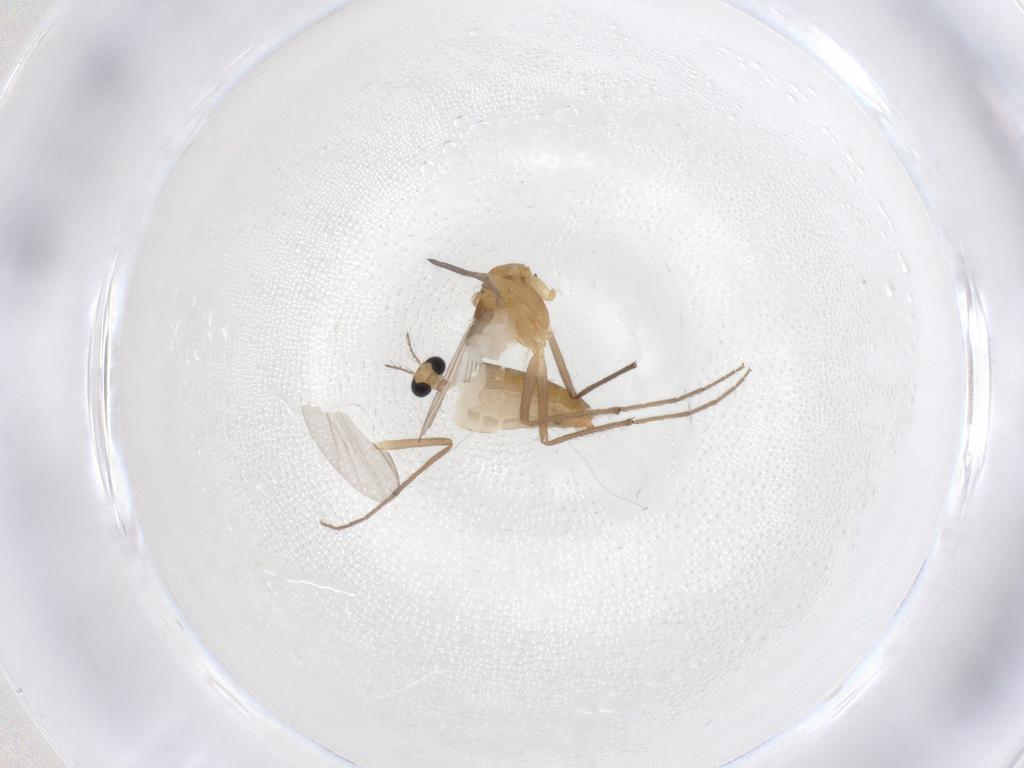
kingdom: Animalia
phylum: Arthropoda
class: Insecta
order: Diptera
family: Chironomidae
